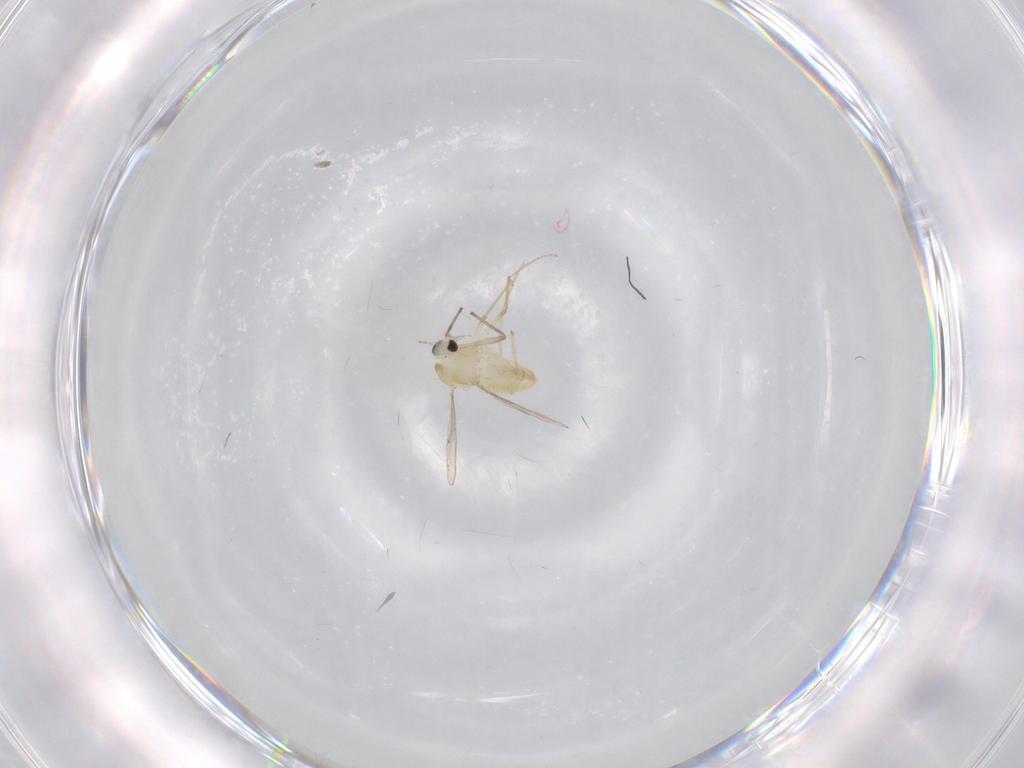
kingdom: Animalia
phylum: Arthropoda
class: Insecta
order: Diptera
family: Chironomidae
